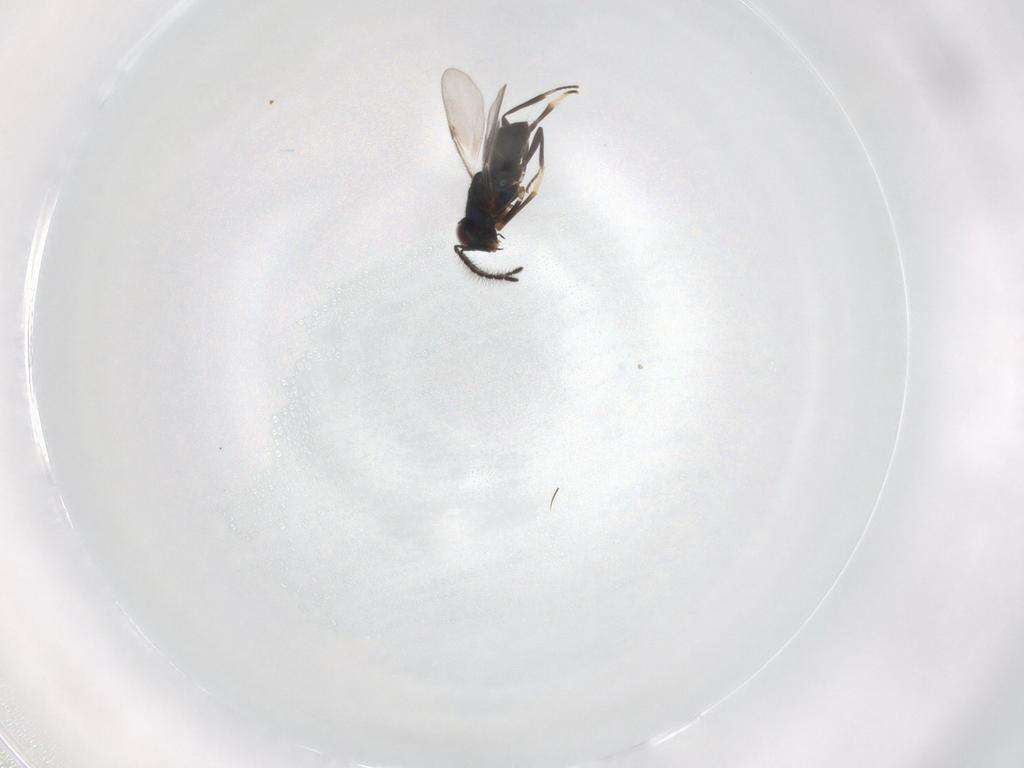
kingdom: Animalia
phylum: Arthropoda
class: Insecta
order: Hymenoptera
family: Encyrtidae
